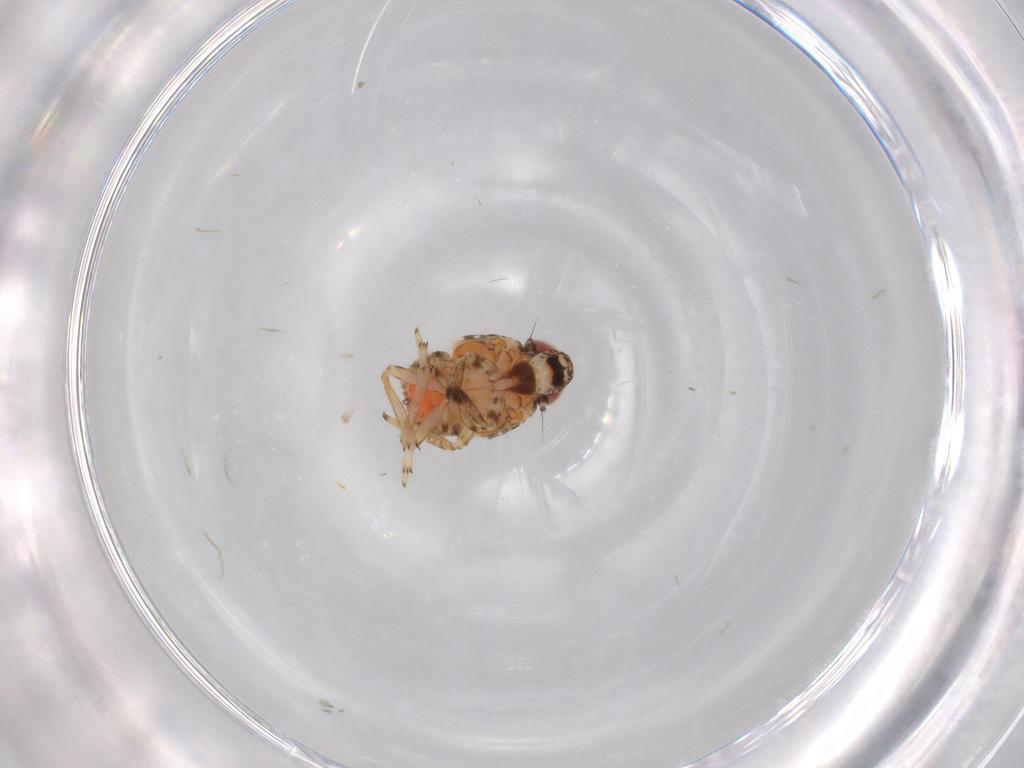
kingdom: Animalia
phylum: Arthropoda
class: Insecta
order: Hemiptera
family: Issidae
